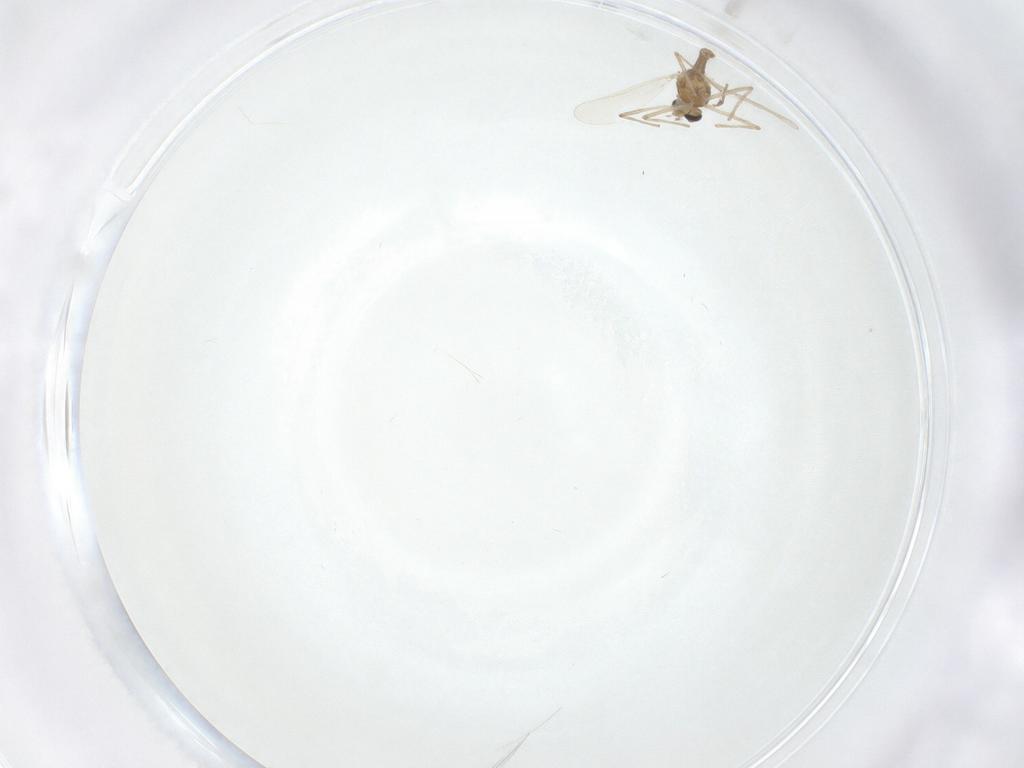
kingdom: Animalia
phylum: Arthropoda
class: Insecta
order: Diptera
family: Chironomidae
